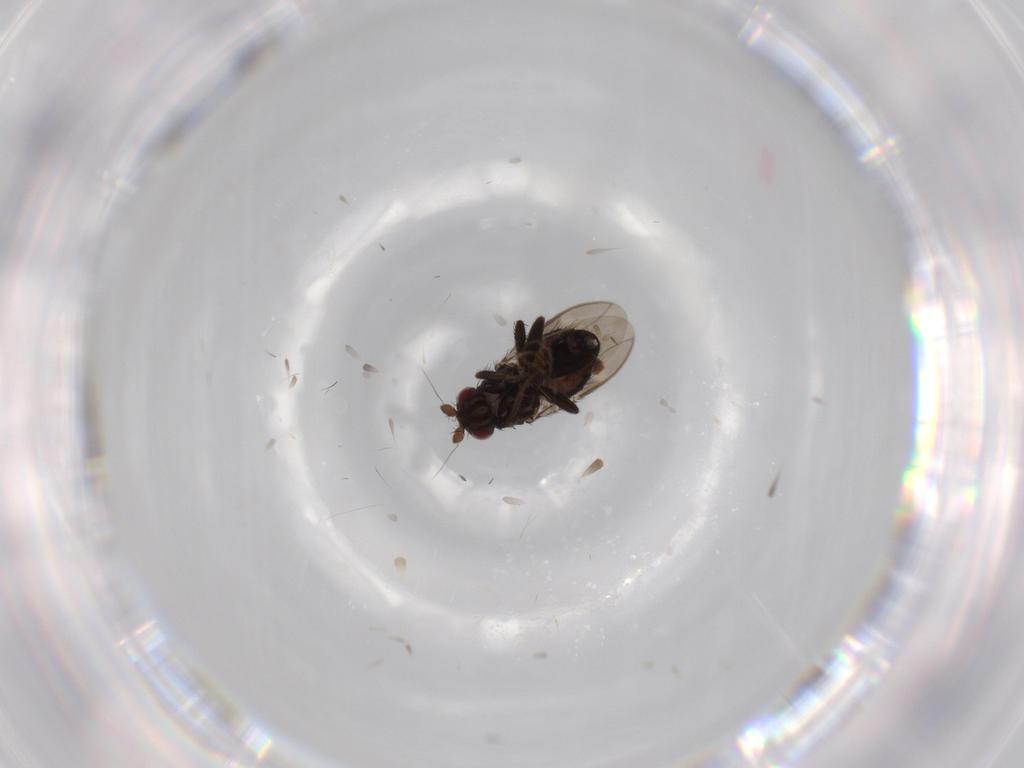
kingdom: Animalia
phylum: Arthropoda
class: Insecta
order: Diptera
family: Sphaeroceridae
